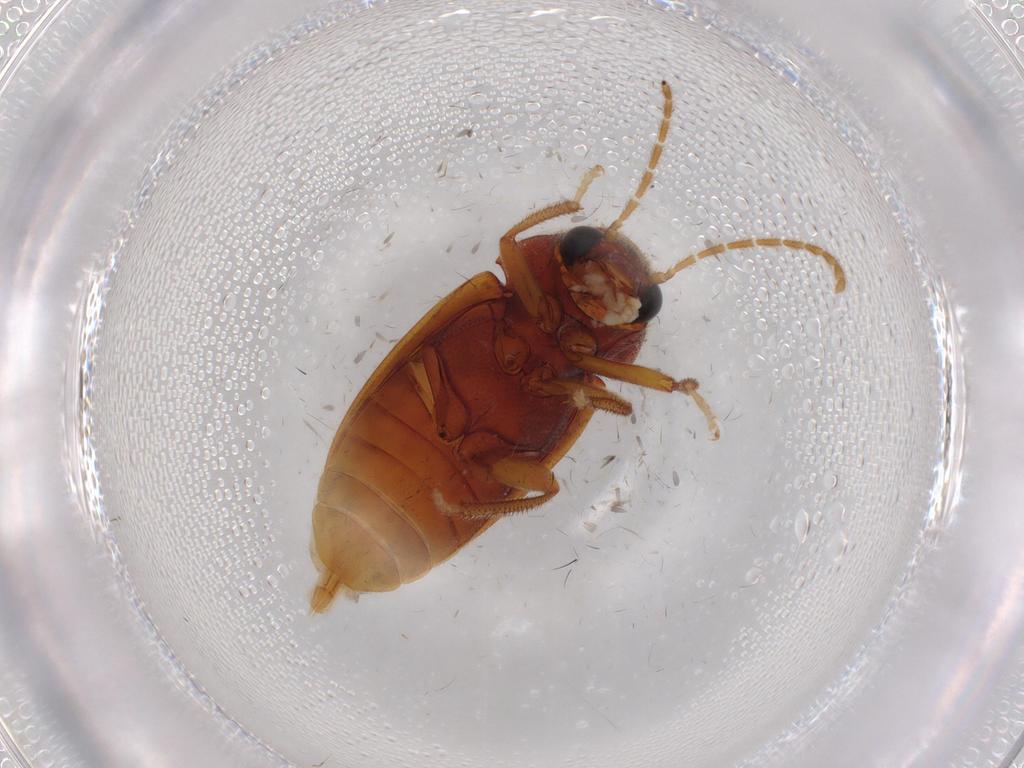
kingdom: Animalia
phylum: Arthropoda
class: Insecta
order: Coleoptera
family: Ptilodactylidae
